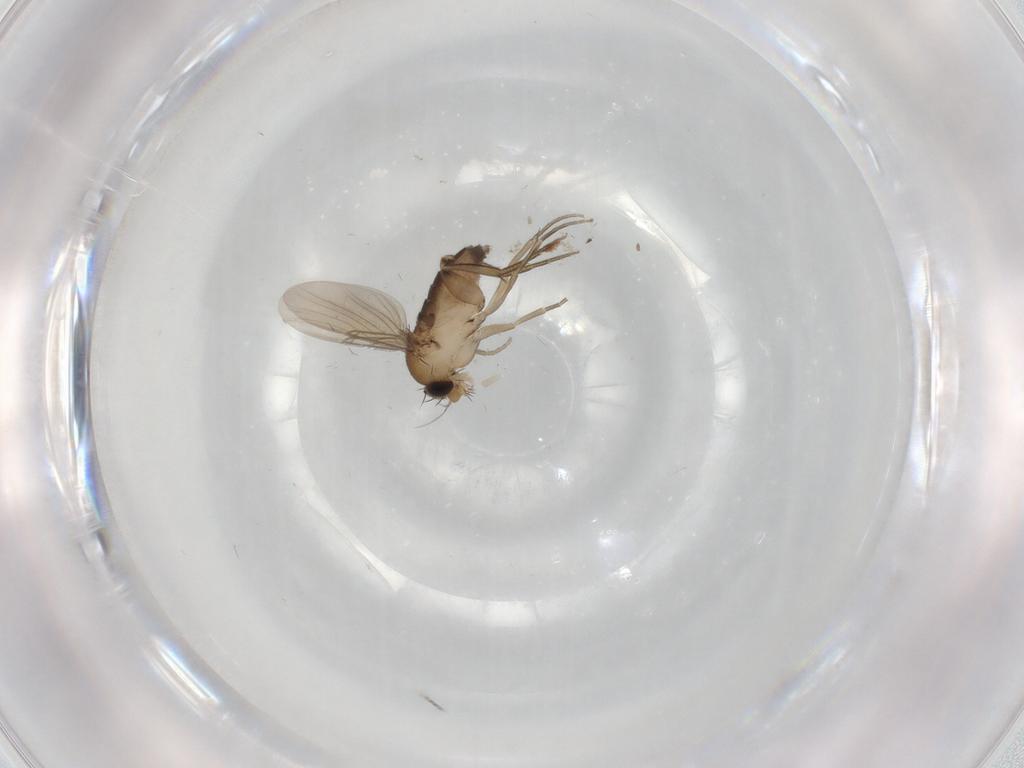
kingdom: Animalia
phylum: Arthropoda
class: Insecta
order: Diptera
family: Phoridae
